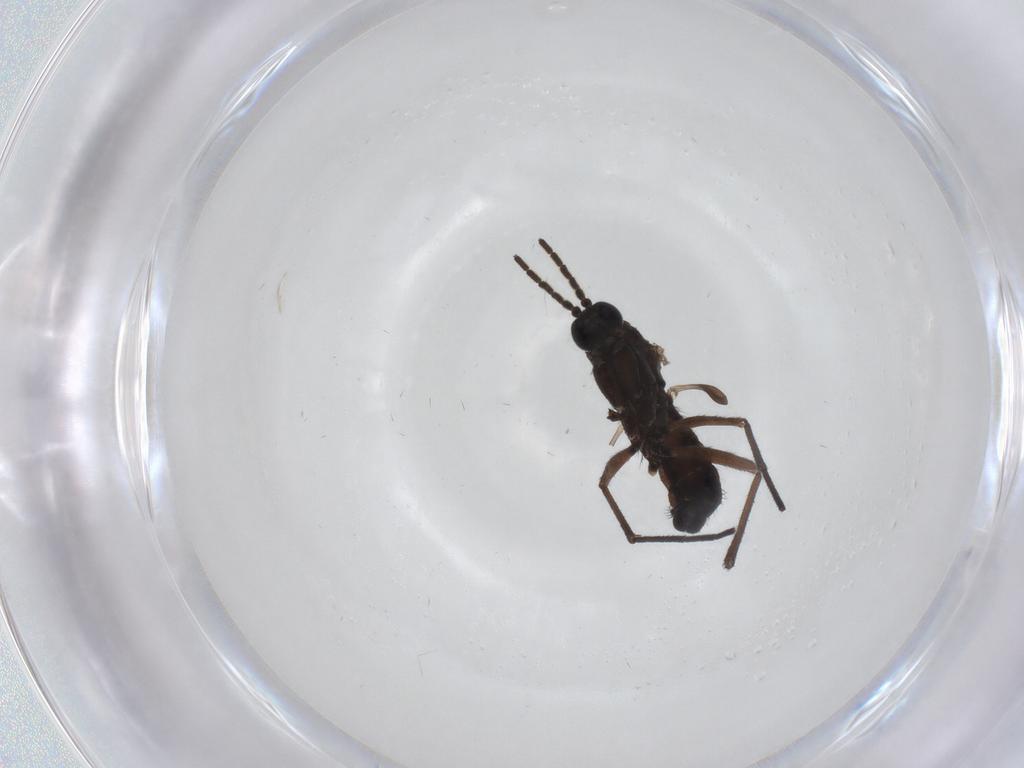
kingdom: Animalia
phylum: Arthropoda
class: Insecta
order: Diptera
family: Sciaridae
